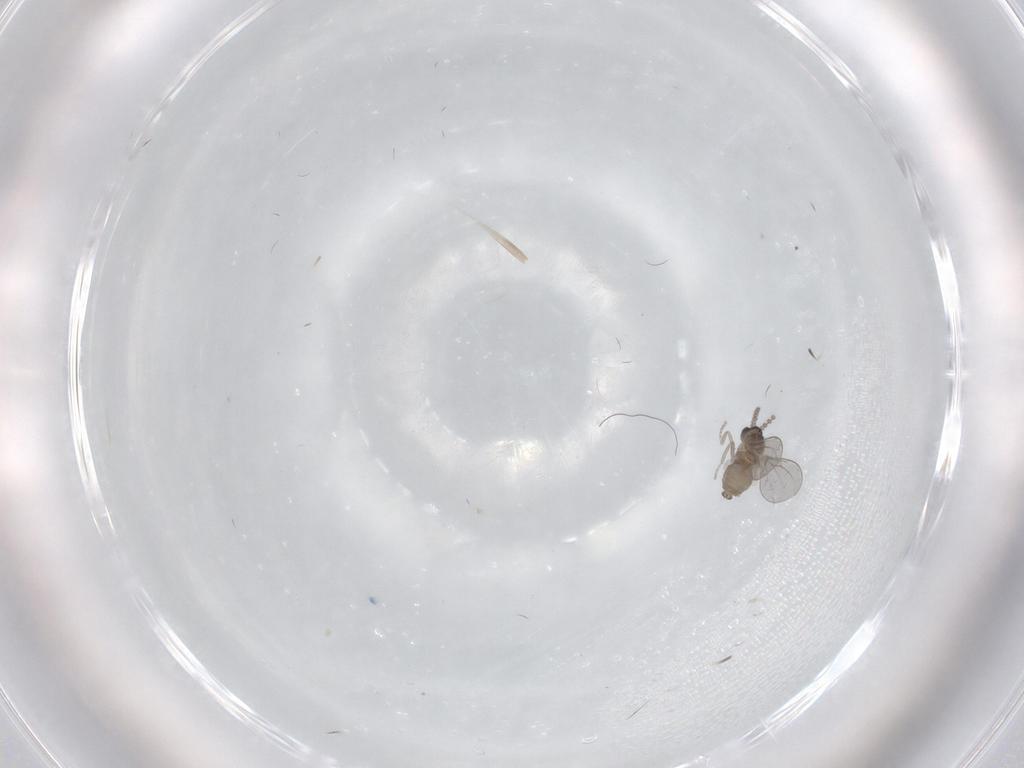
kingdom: Animalia
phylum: Arthropoda
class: Insecta
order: Diptera
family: Cecidomyiidae
